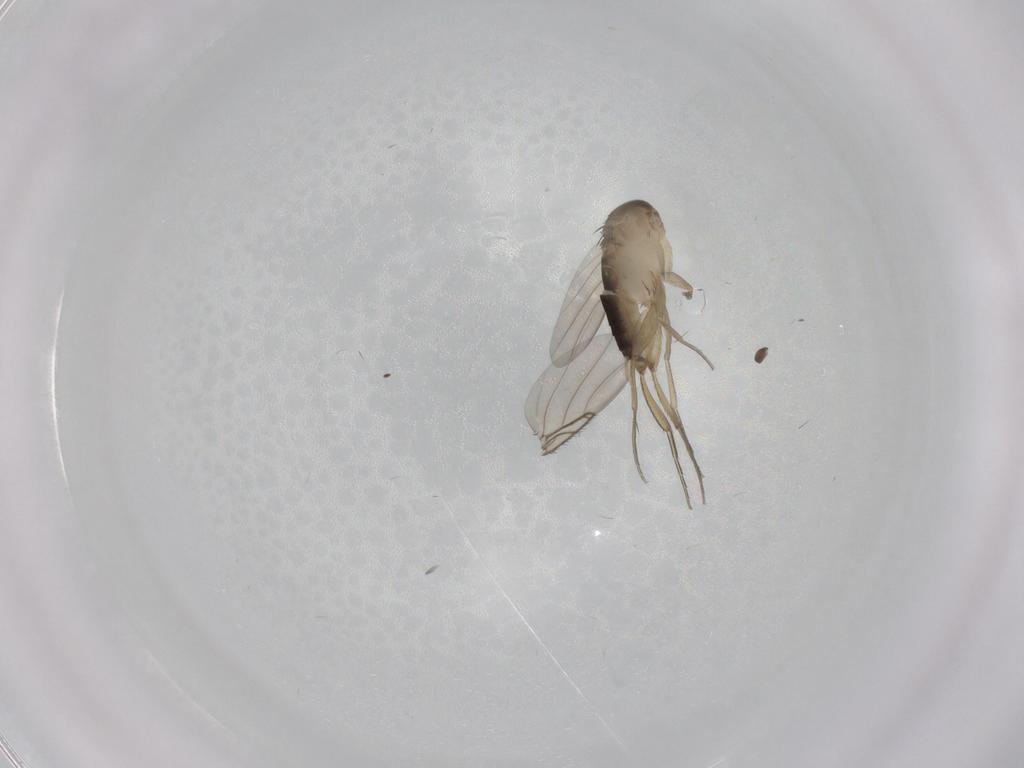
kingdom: Animalia
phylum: Arthropoda
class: Insecta
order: Diptera
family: Phoridae
